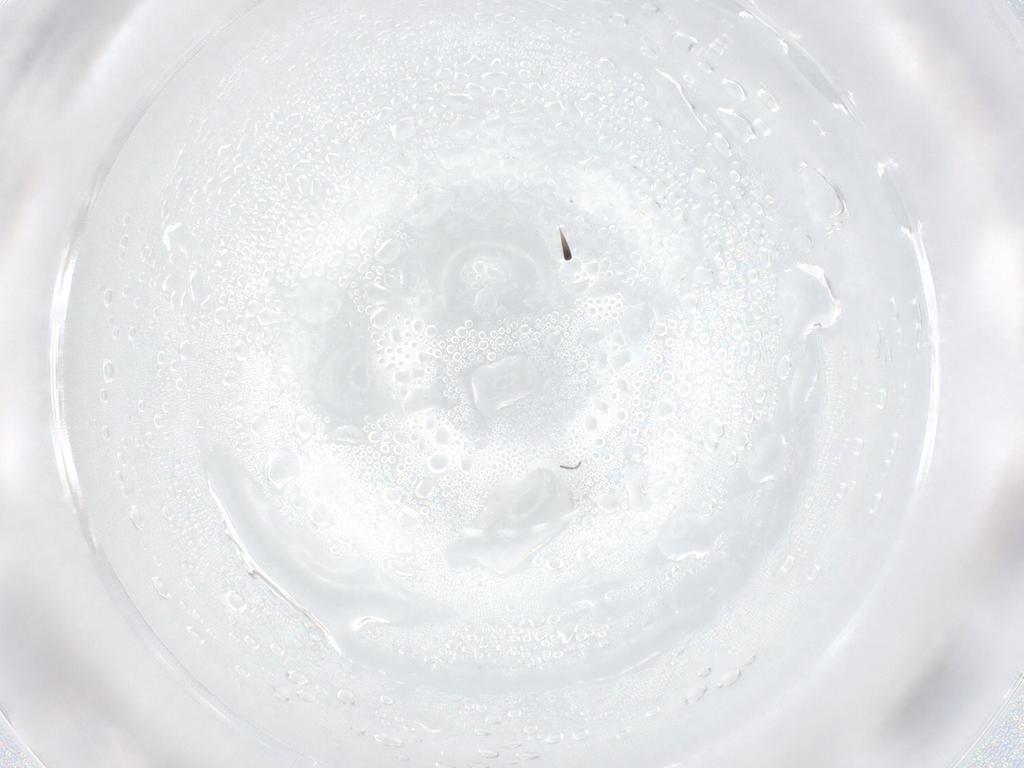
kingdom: Animalia
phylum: Arthropoda
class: Insecta
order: Diptera
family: Cecidomyiidae
